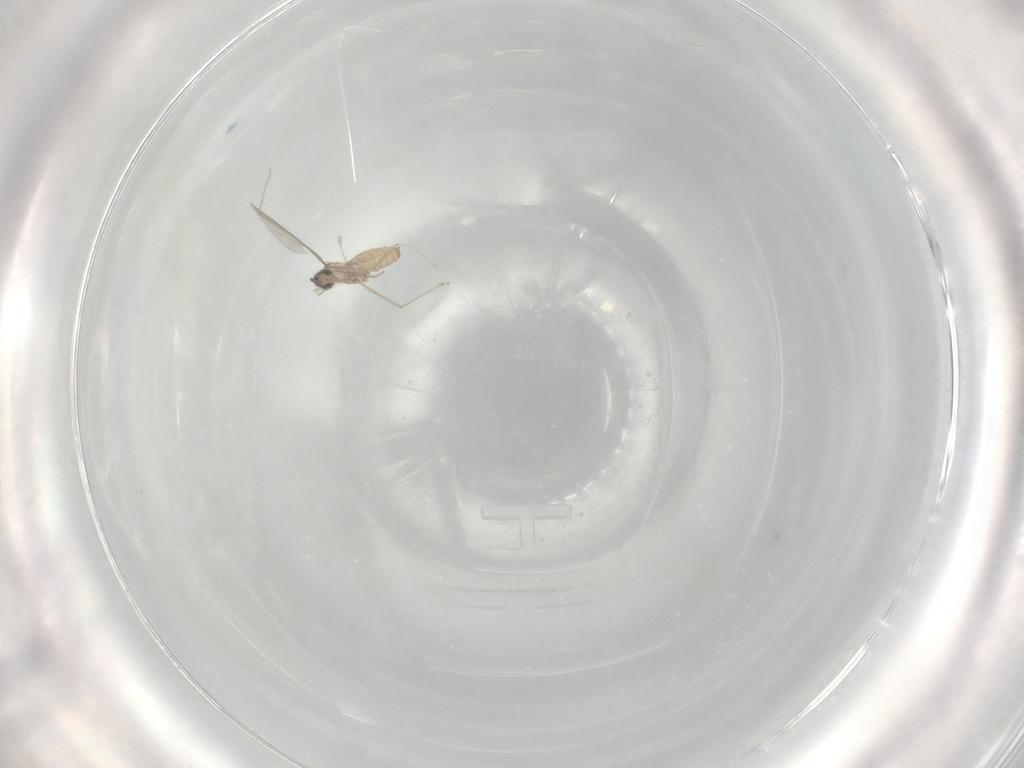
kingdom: Animalia
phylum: Arthropoda
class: Insecta
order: Diptera
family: Cecidomyiidae
